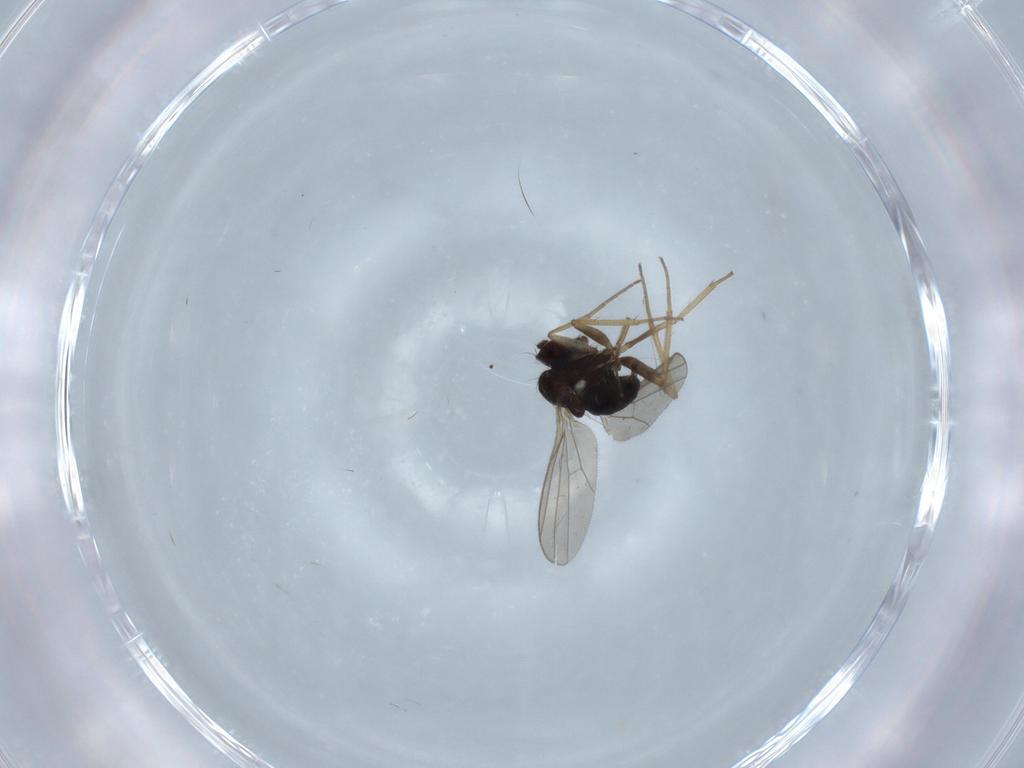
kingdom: Animalia
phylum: Arthropoda
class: Insecta
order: Diptera
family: Dolichopodidae
